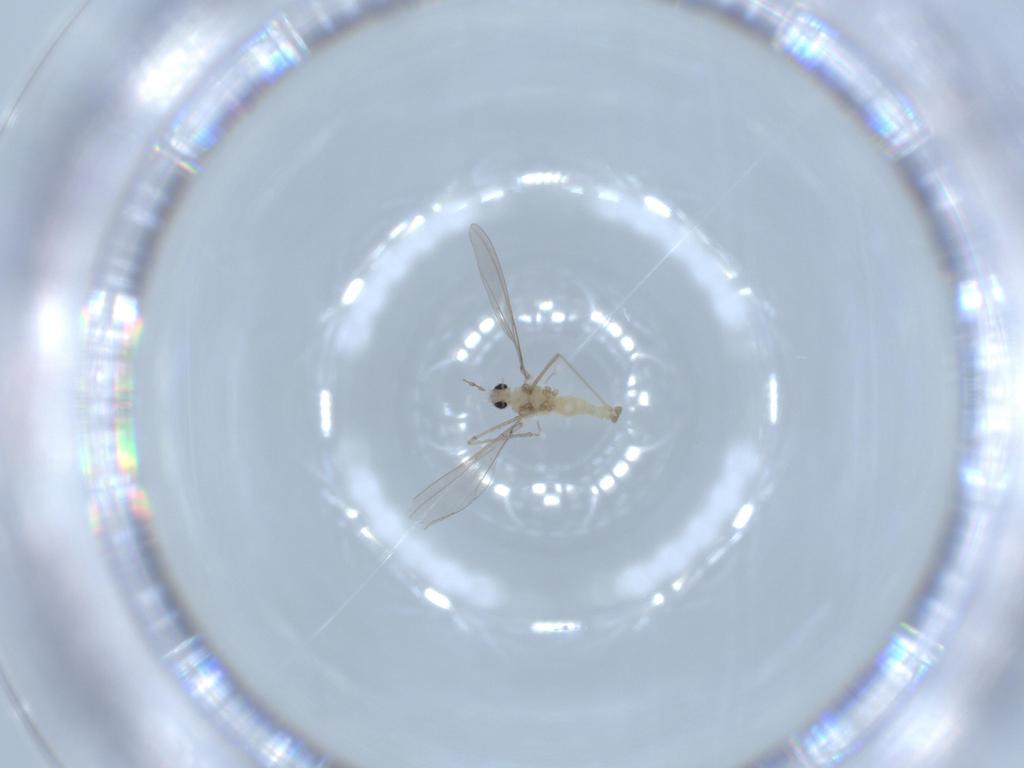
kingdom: Animalia
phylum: Arthropoda
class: Insecta
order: Diptera
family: Cecidomyiidae
